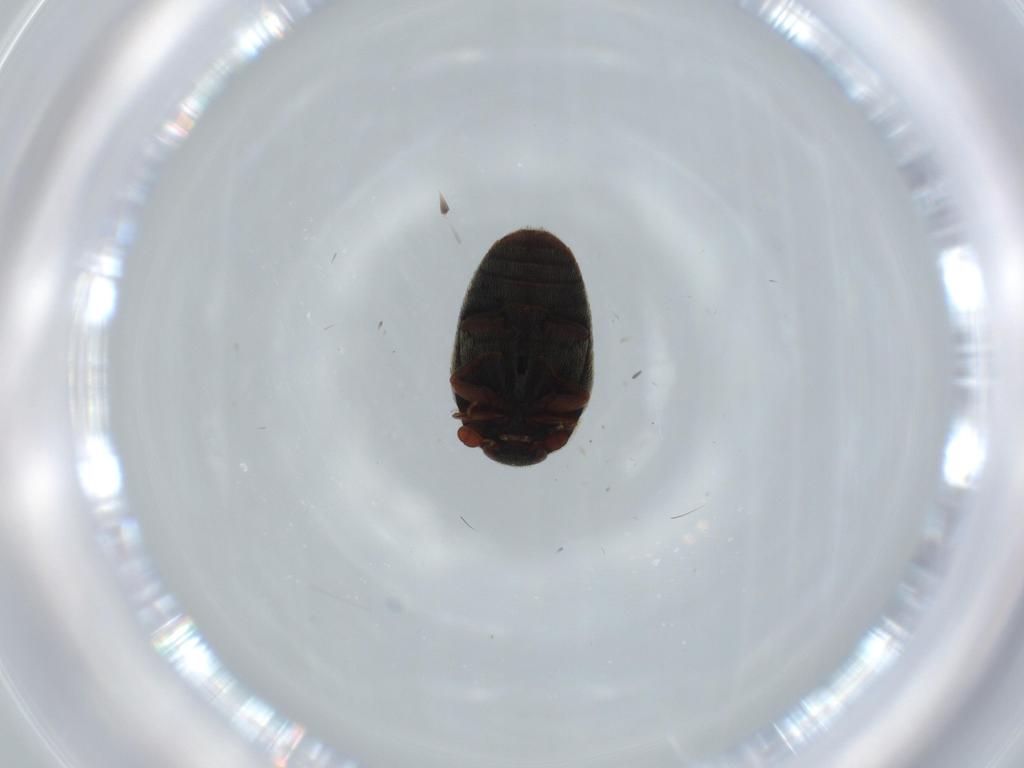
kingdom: Animalia
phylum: Arthropoda
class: Insecta
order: Coleoptera
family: Dermestidae
